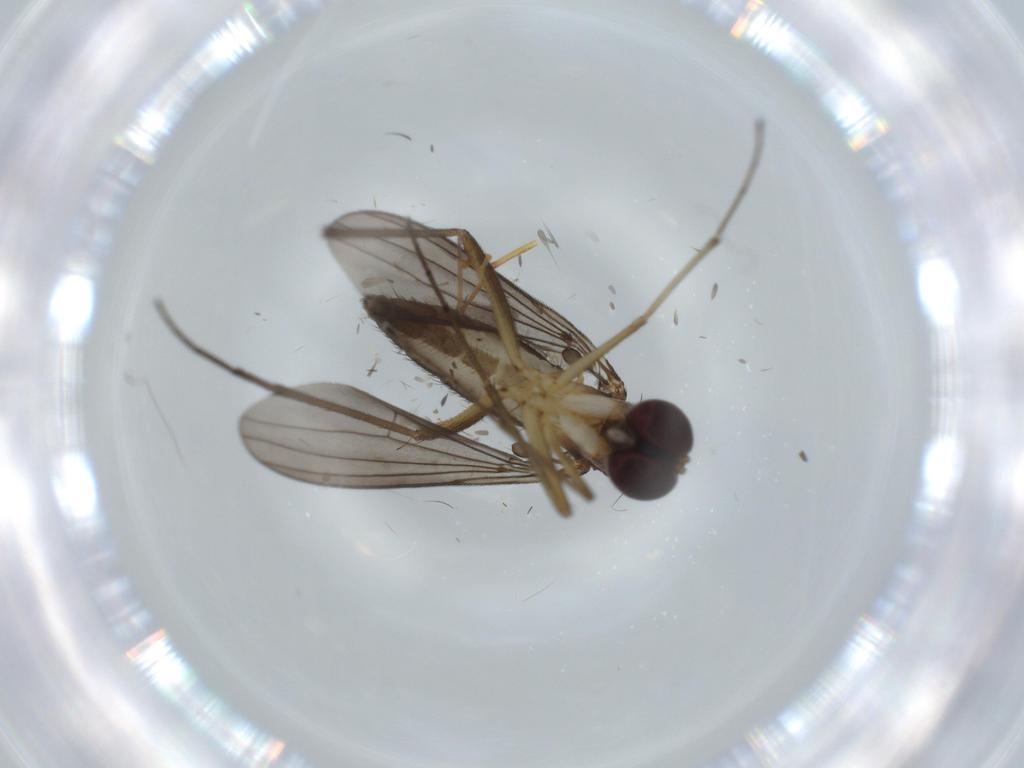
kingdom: Animalia
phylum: Arthropoda
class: Insecta
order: Diptera
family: Dolichopodidae
